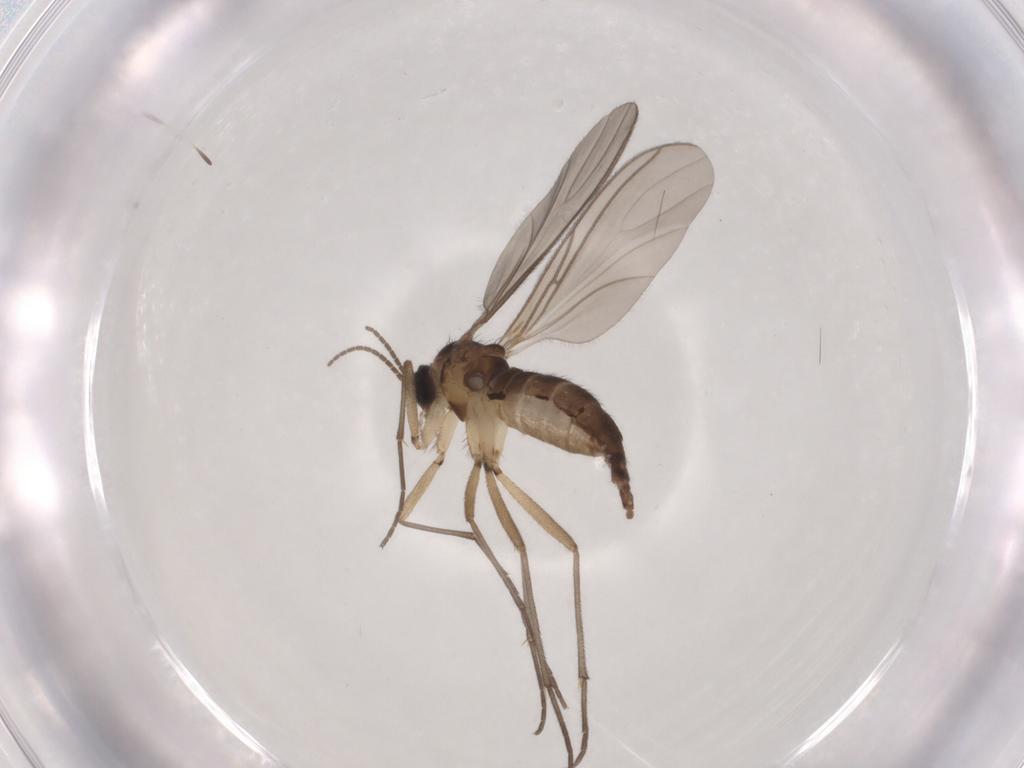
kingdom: Animalia
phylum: Arthropoda
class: Insecta
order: Diptera
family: Sciaridae
